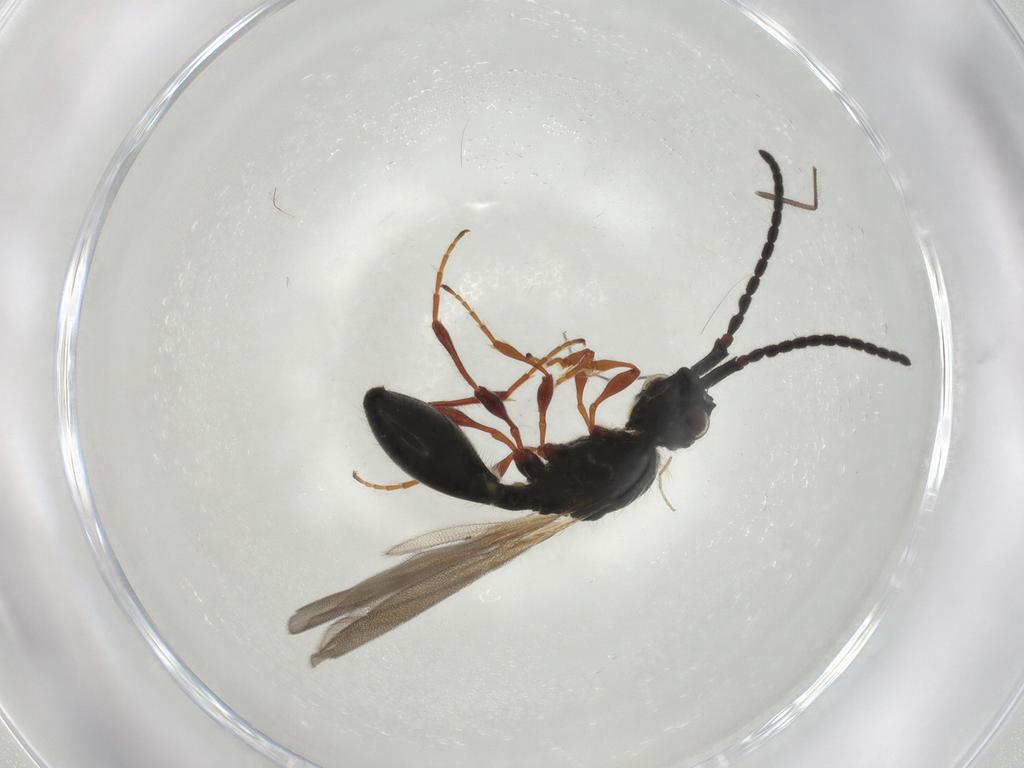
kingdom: Animalia
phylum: Arthropoda
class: Insecta
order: Hymenoptera
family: Diapriidae
